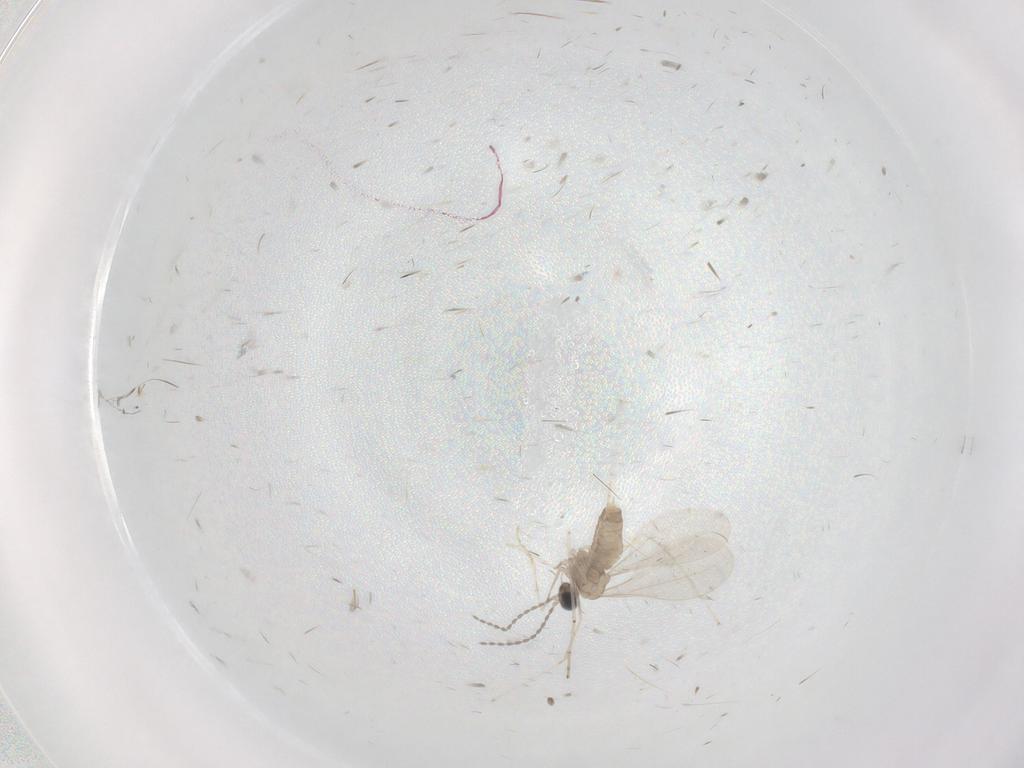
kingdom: Animalia
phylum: Arthropoda
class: Insecta
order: Diptera
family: Cecidomyiidae
